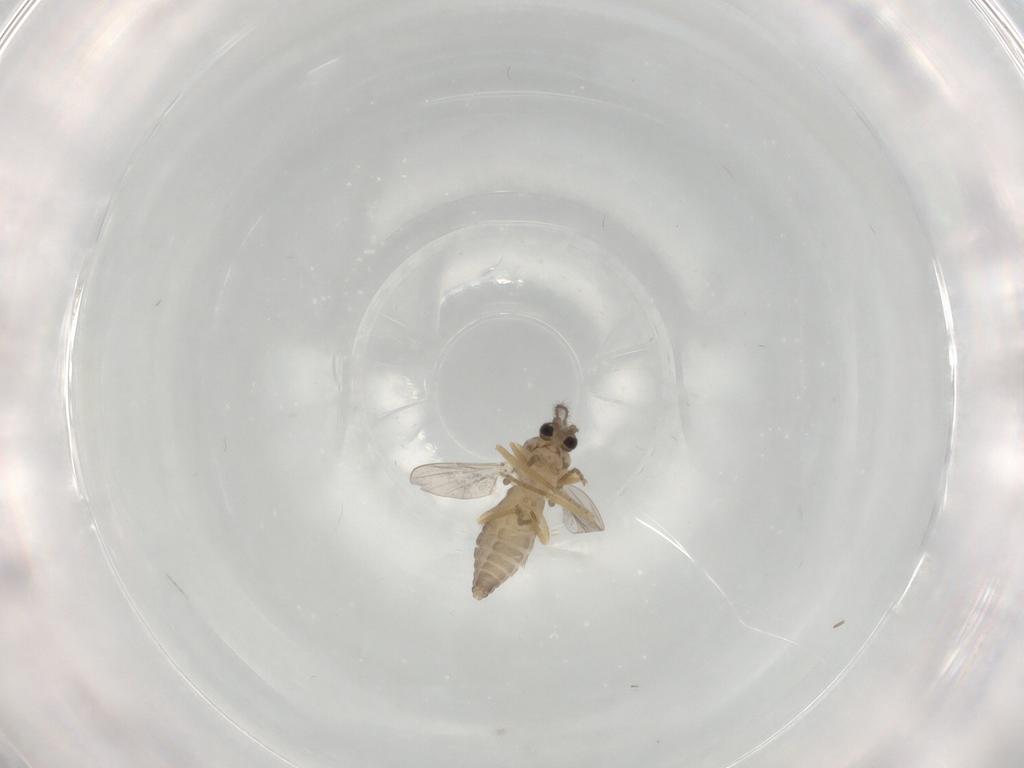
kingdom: Animalia
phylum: Arthropoda
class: Insecta
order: Diptera
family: Ceratopogonidae
